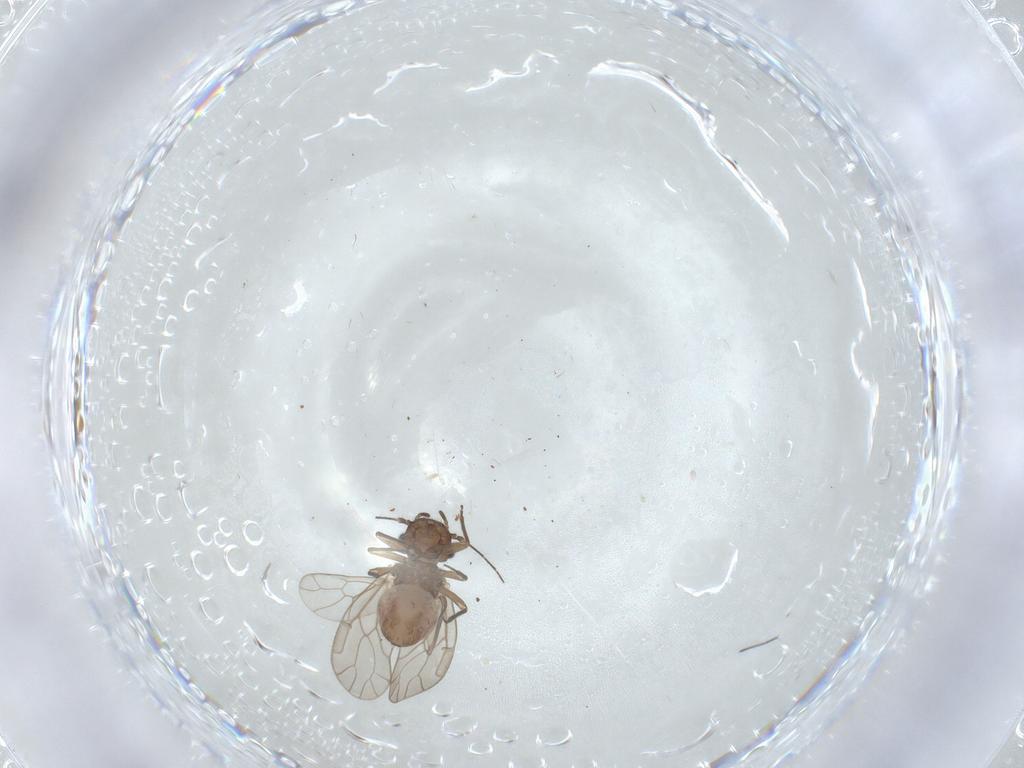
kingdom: Animalia
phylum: Arthropoda
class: Insecta
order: Psocodea
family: Ectopsocidae
